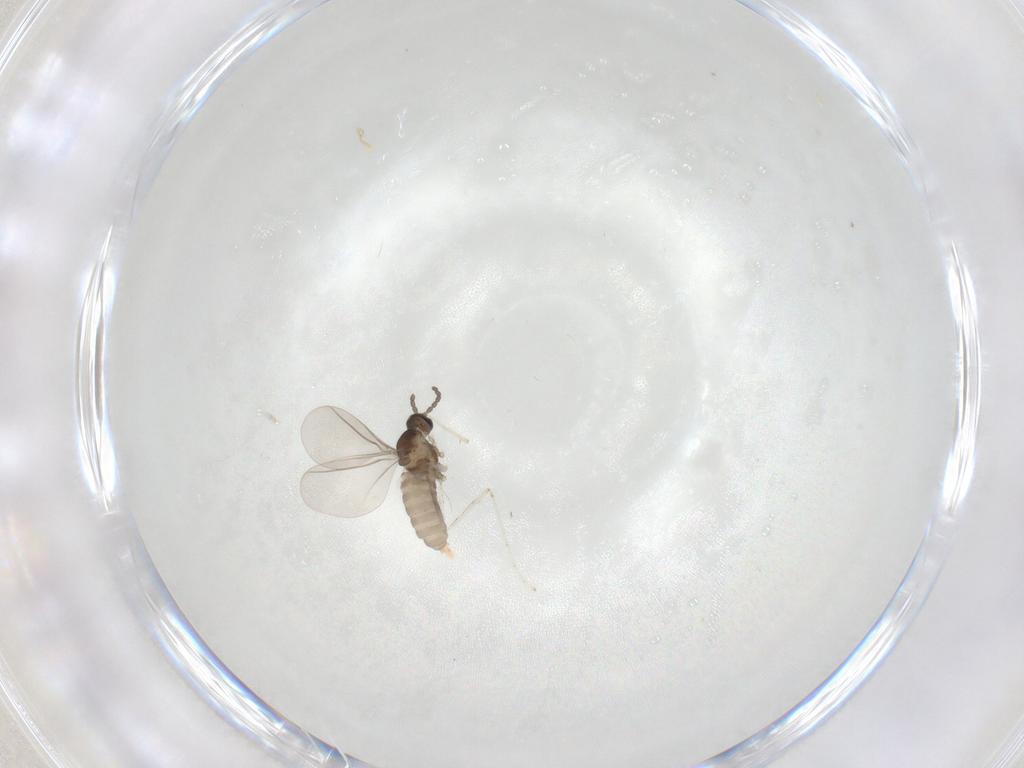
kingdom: Animalia
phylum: Arthropoda
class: Insecta
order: Diptera
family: Cecidomyiidae
